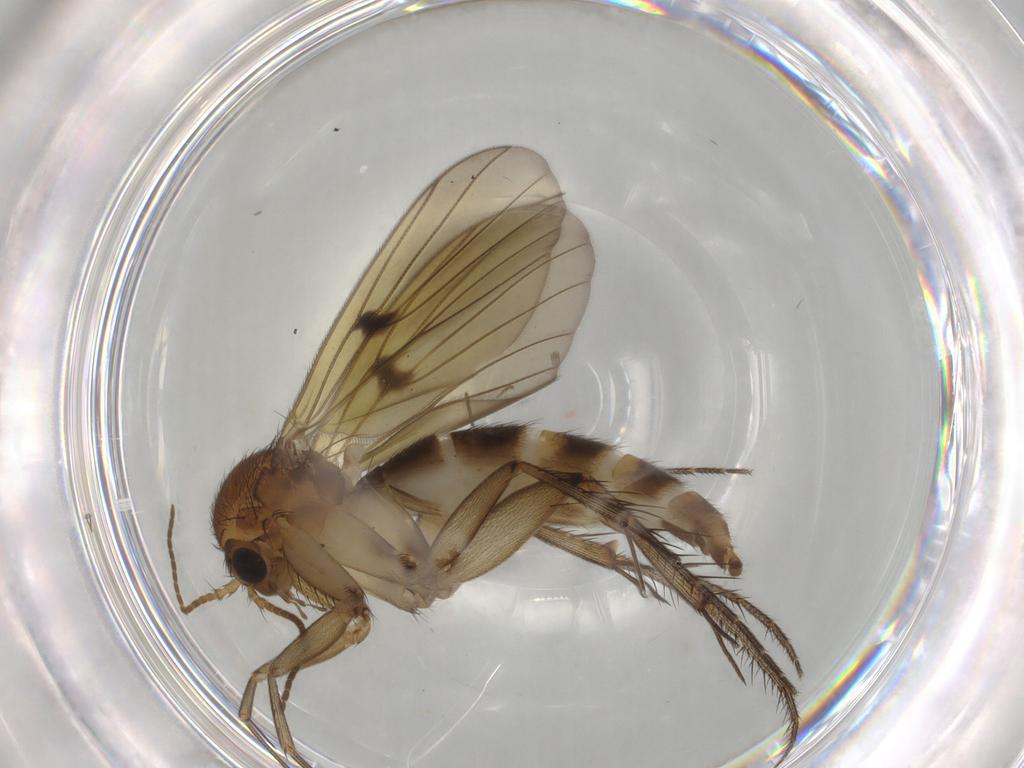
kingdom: Animalia
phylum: Arthropoda
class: Insecta
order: Diptera
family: Mycetophilidae
